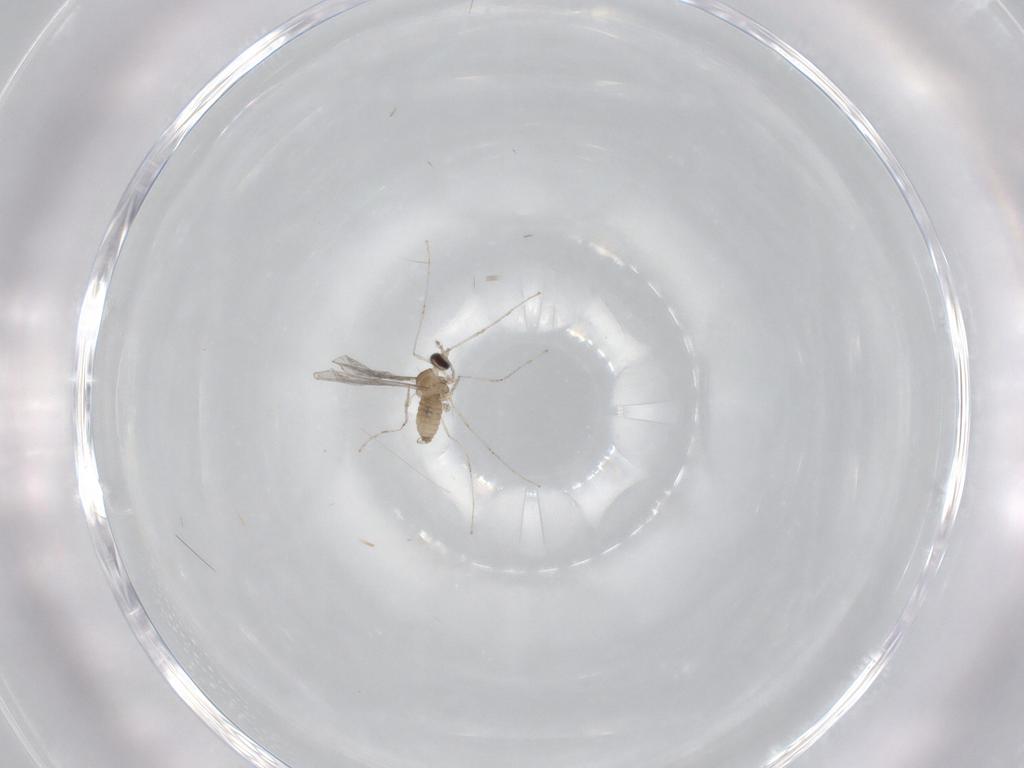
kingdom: Animalia
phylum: Arthropoda
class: Insecta
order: Diptera
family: Cecidomyiidae
